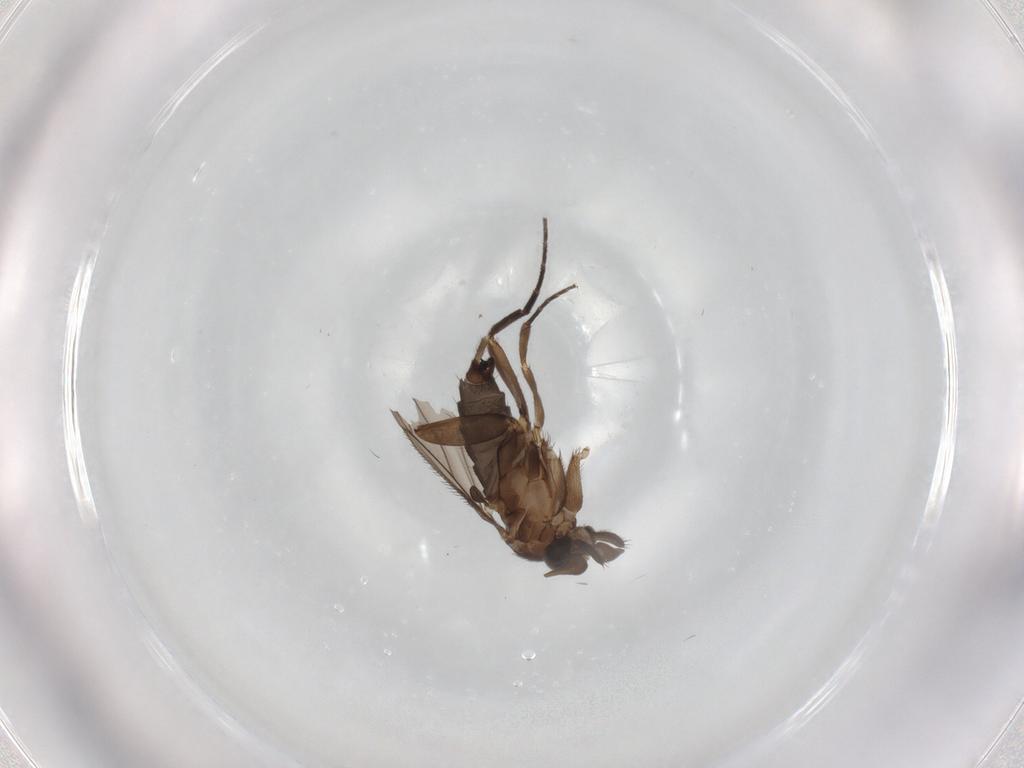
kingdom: Animalia
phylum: Arthropoda
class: Insecta
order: Diptera
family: Phoridae
